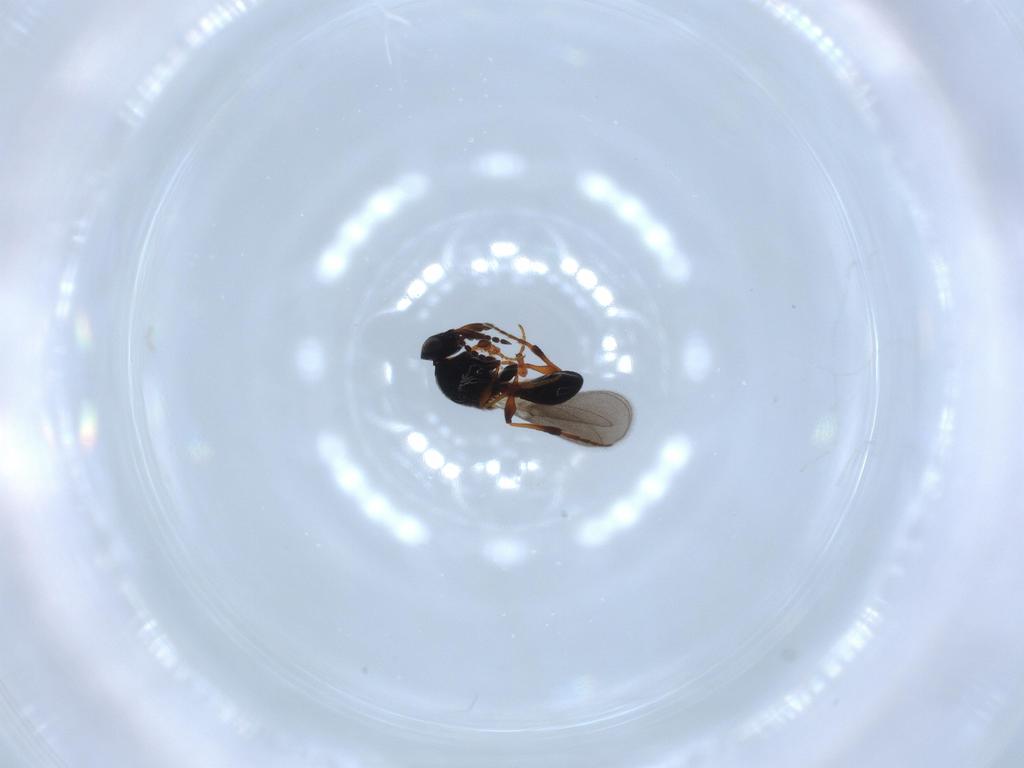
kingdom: Animalia
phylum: Arthropoda
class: Insecta
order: Hymenoptera
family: Platygastridae
